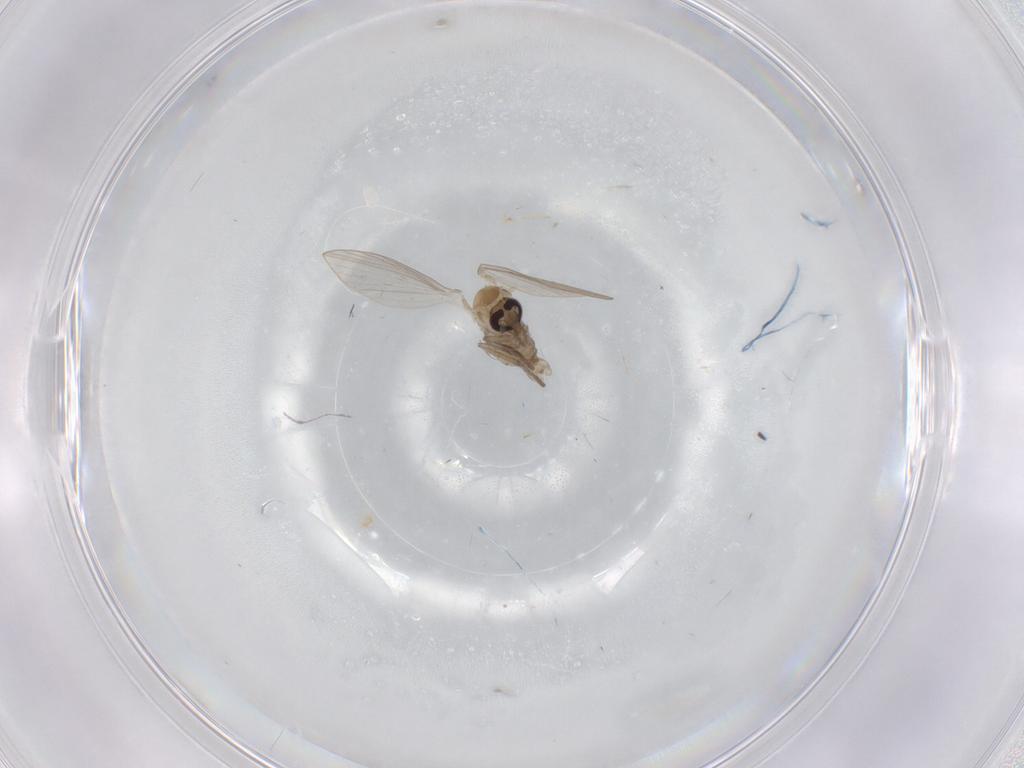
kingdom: Animalia
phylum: Arthropoda
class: Insecta
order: Diptera
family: Psychodidae
